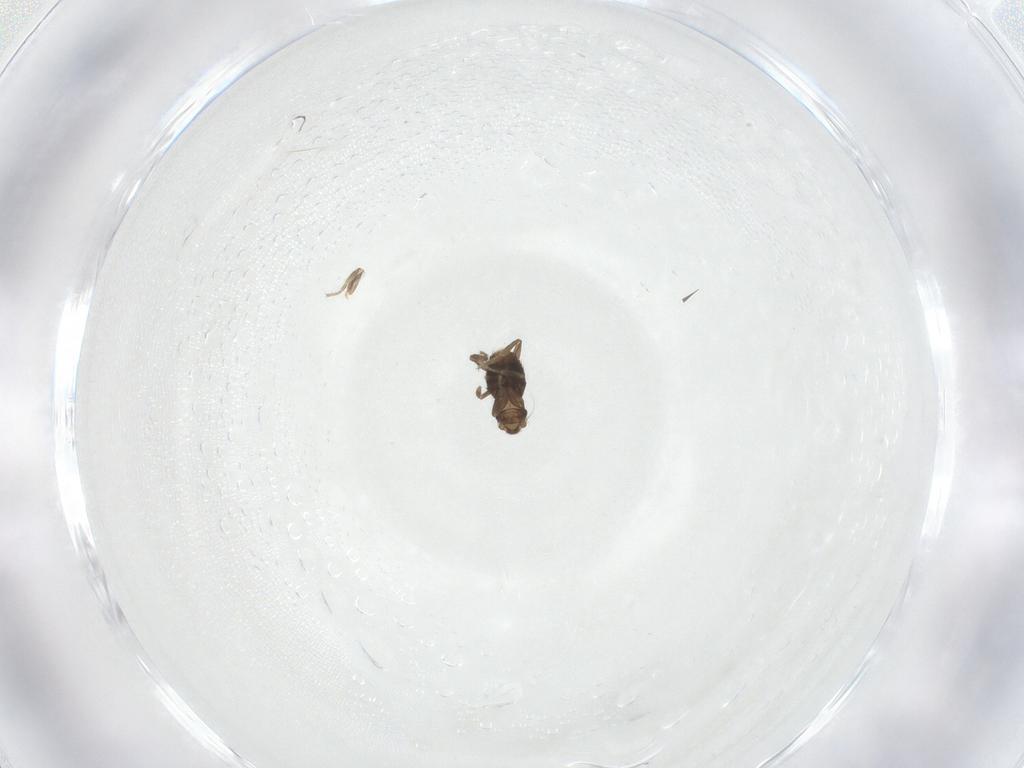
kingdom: Animalia
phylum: Arthropoda
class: Insecta
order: Diptera
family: Phoridae
